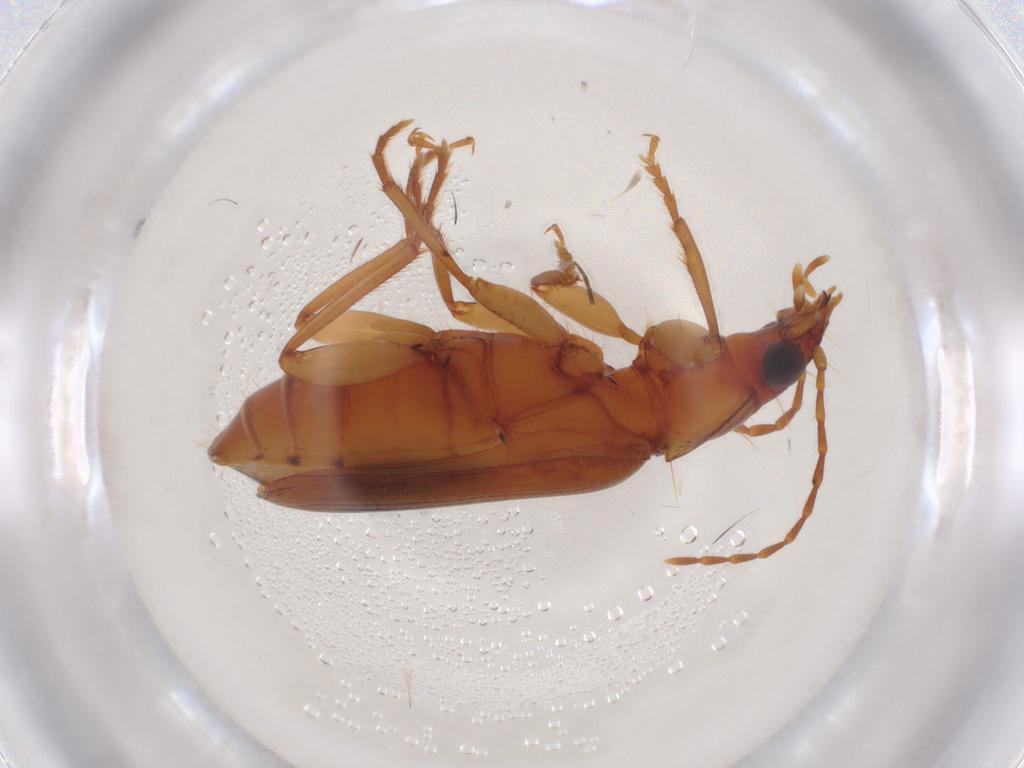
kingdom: Animalia
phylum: Arthropoda
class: Insecta
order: Coleoptera
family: Carabidae
